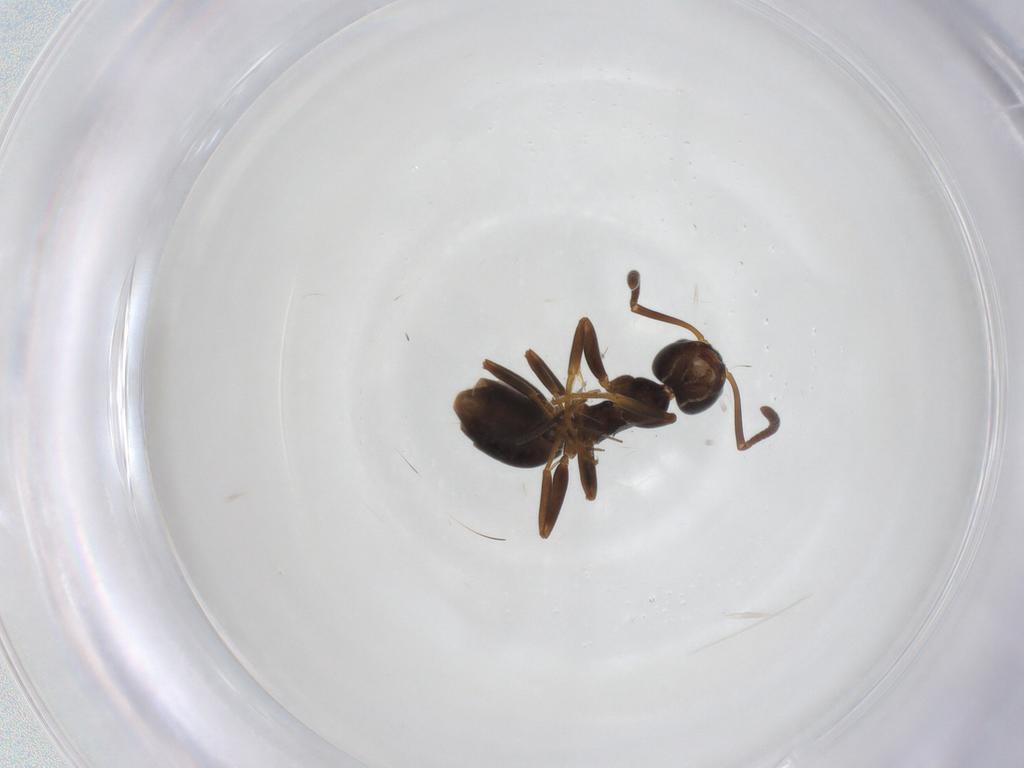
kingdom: Animalia
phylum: Arthropoda
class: Insecta
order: Hymenoptera
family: Formicidae
